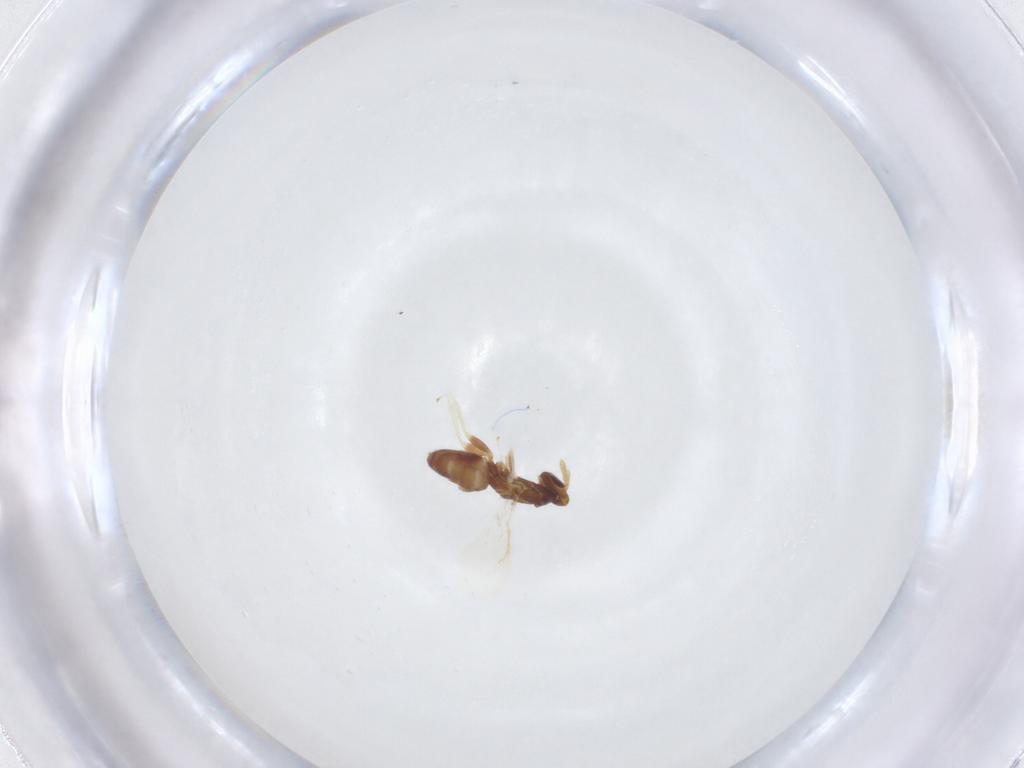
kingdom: Animalia
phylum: Arthropoda
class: Insecta
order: Hymenoptera
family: Eulophidae
